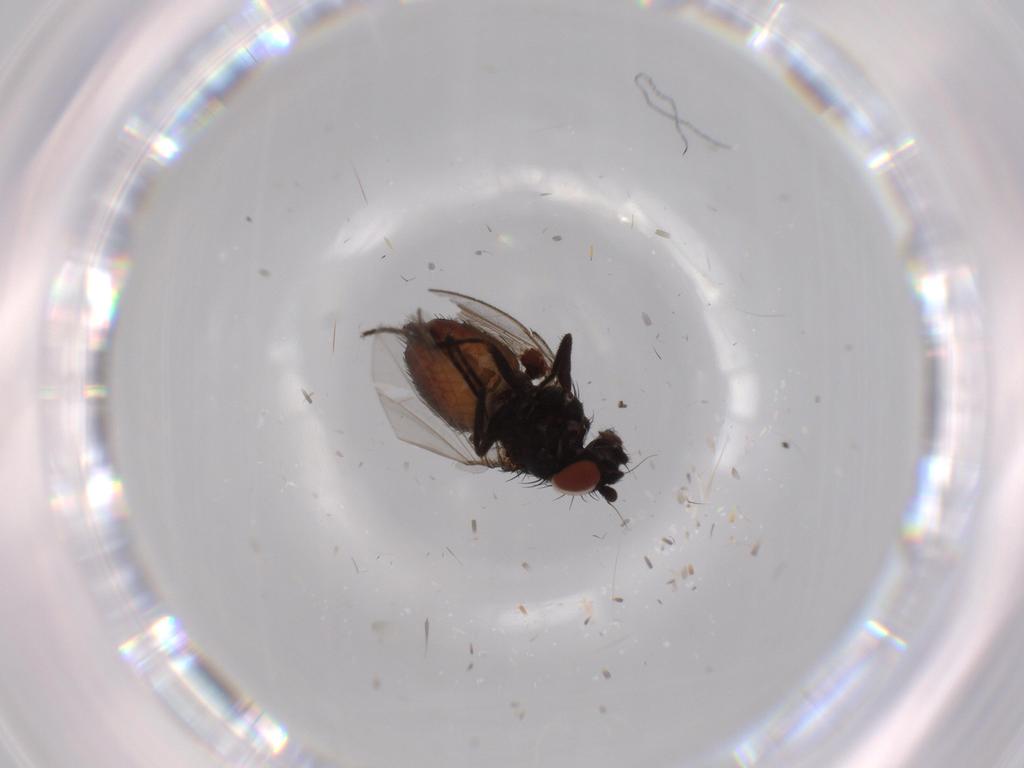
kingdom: Animalia
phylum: Arthropoda
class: Insecta
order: Diptera
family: Milichiidae
